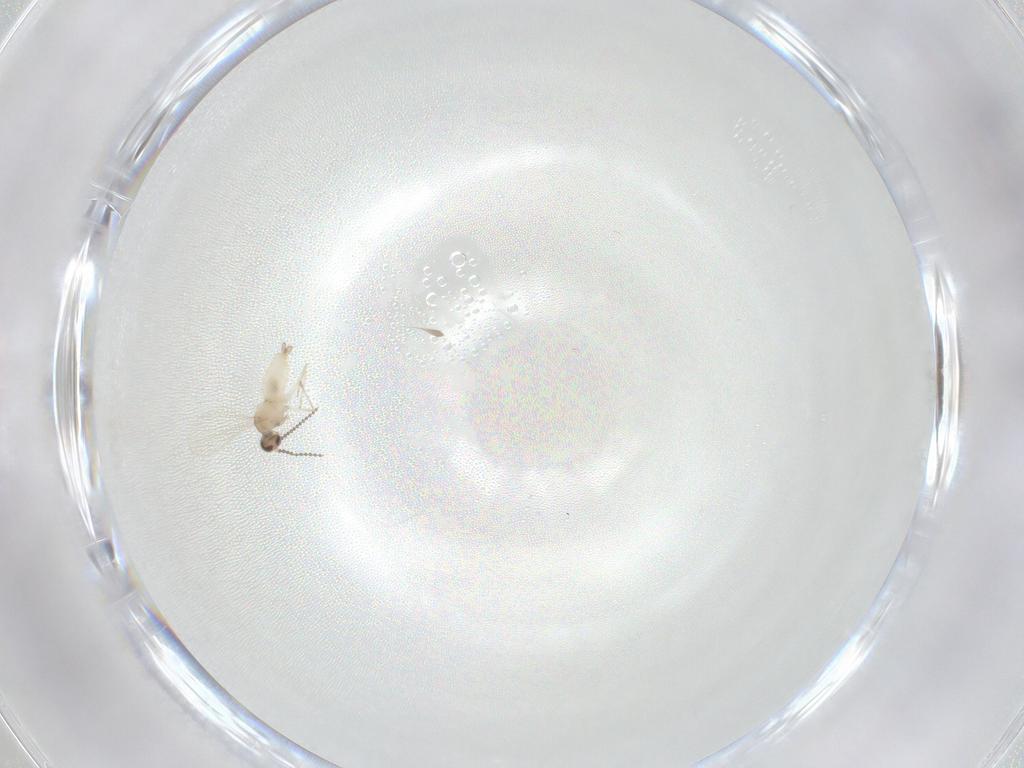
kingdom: Animalia
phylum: Arthropoda
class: Insecta
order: Diptera
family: Cecidomyiidae
